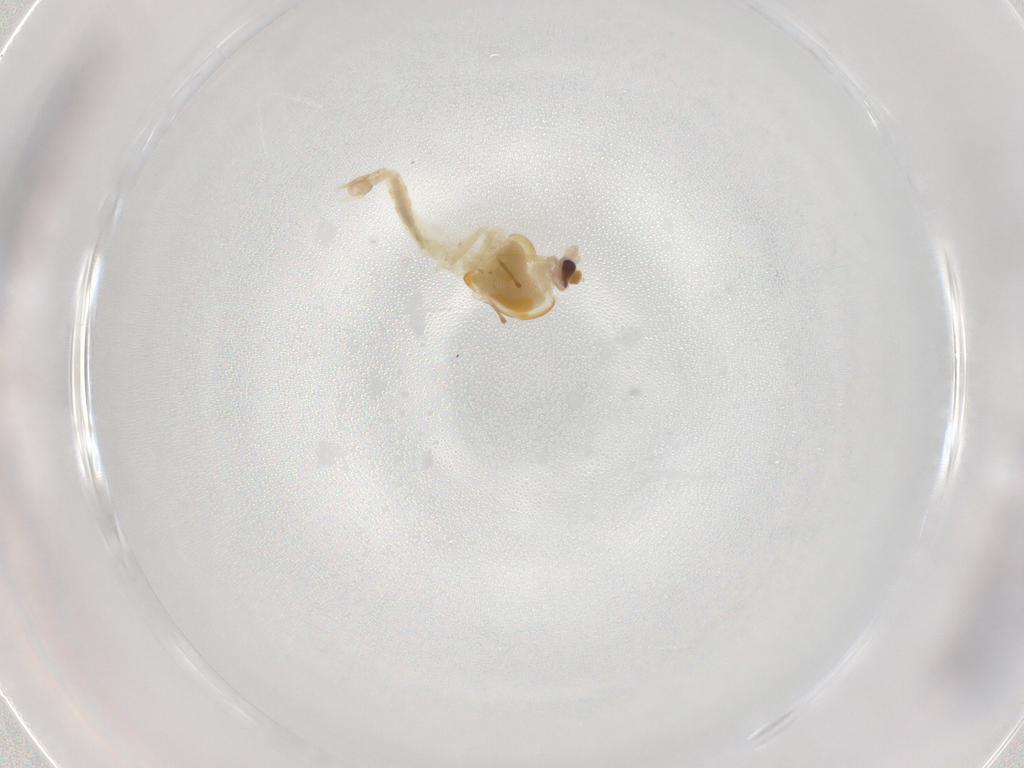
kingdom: Animalia
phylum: Arthropoda
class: Insecta
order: Diptera
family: Chironomidae
